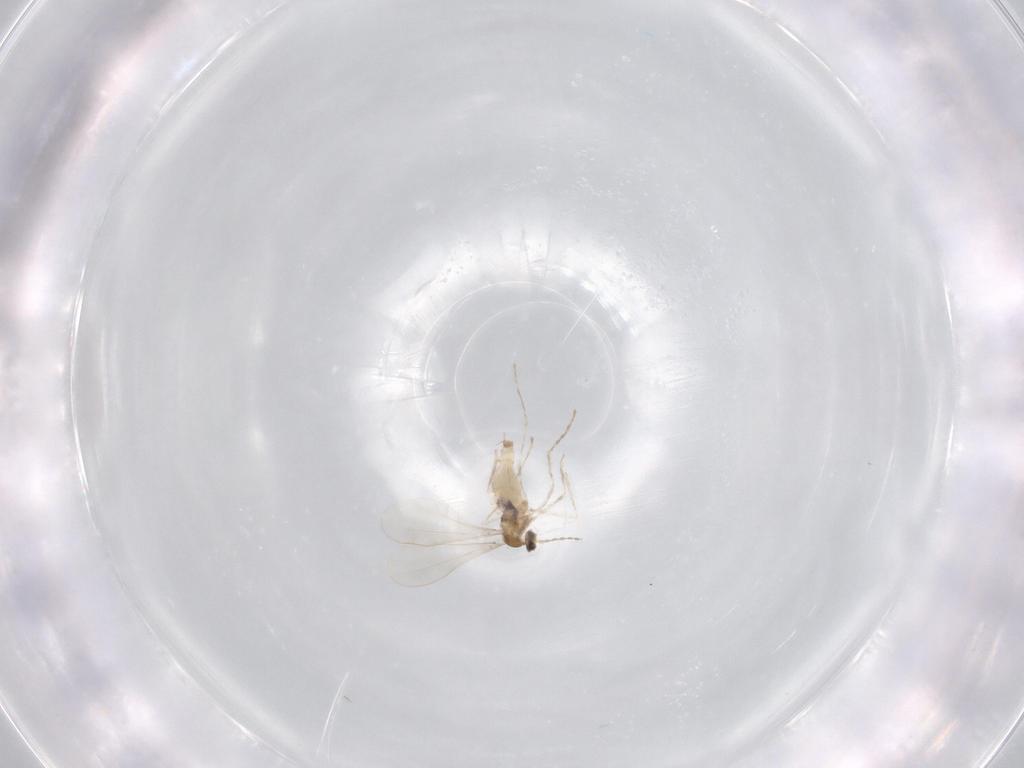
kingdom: Animalia
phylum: Arthropoda
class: Insecta
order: Diptera
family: Cecidomyiidae
